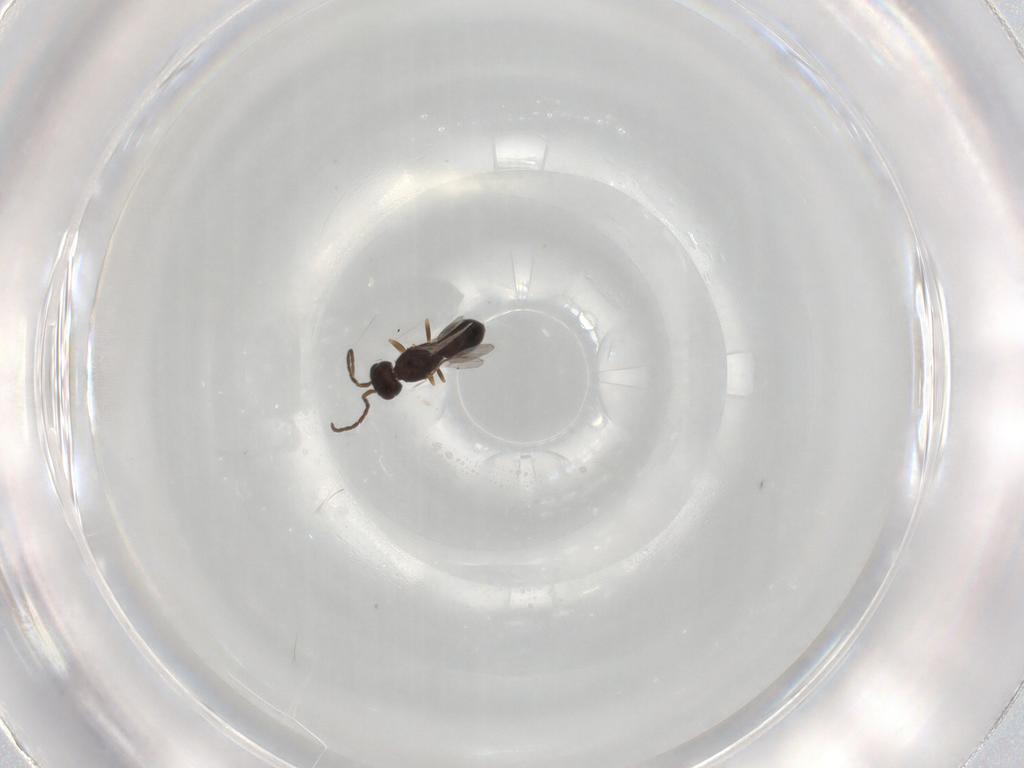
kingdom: Animalia
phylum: Arthropoda
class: Insecta
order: Hymenoptera
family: Megaspilidae
